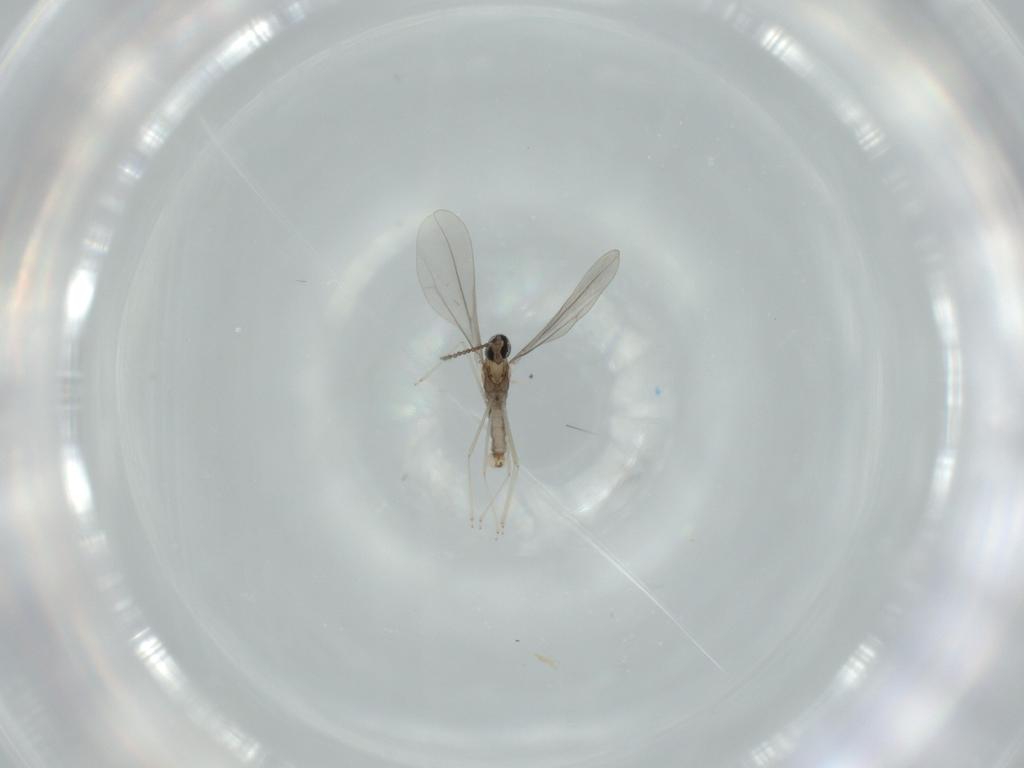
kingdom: Animalia
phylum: Arthropoda
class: Insecta
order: Diptera
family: Cecidomyiidae
